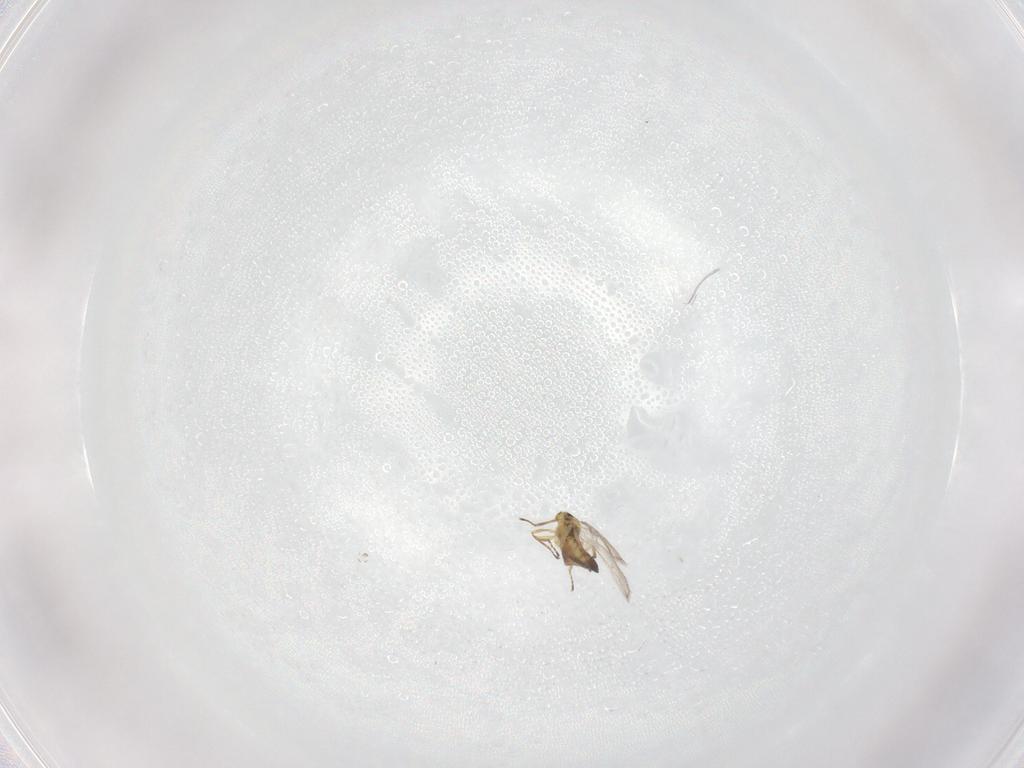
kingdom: Animalia
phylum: Arthropoda
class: Insecta
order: Hymenoptera
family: Eulophidae
